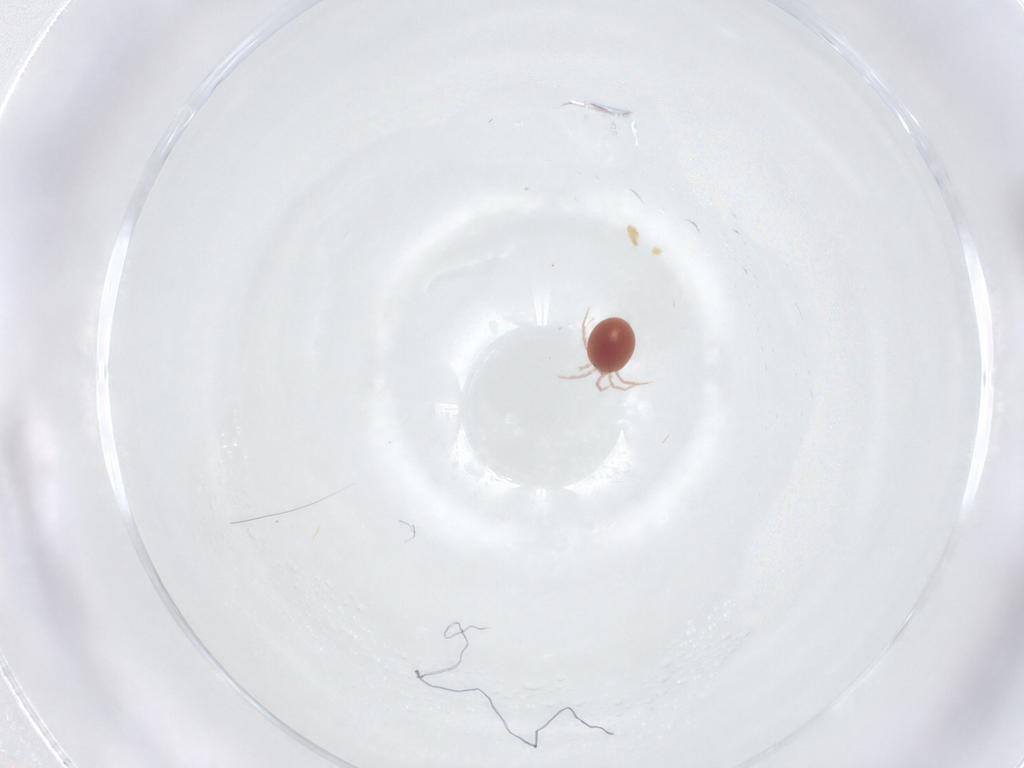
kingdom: Animalia
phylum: Arthropoda
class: Arachnida
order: Trombidiformes
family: Lebertiidae
